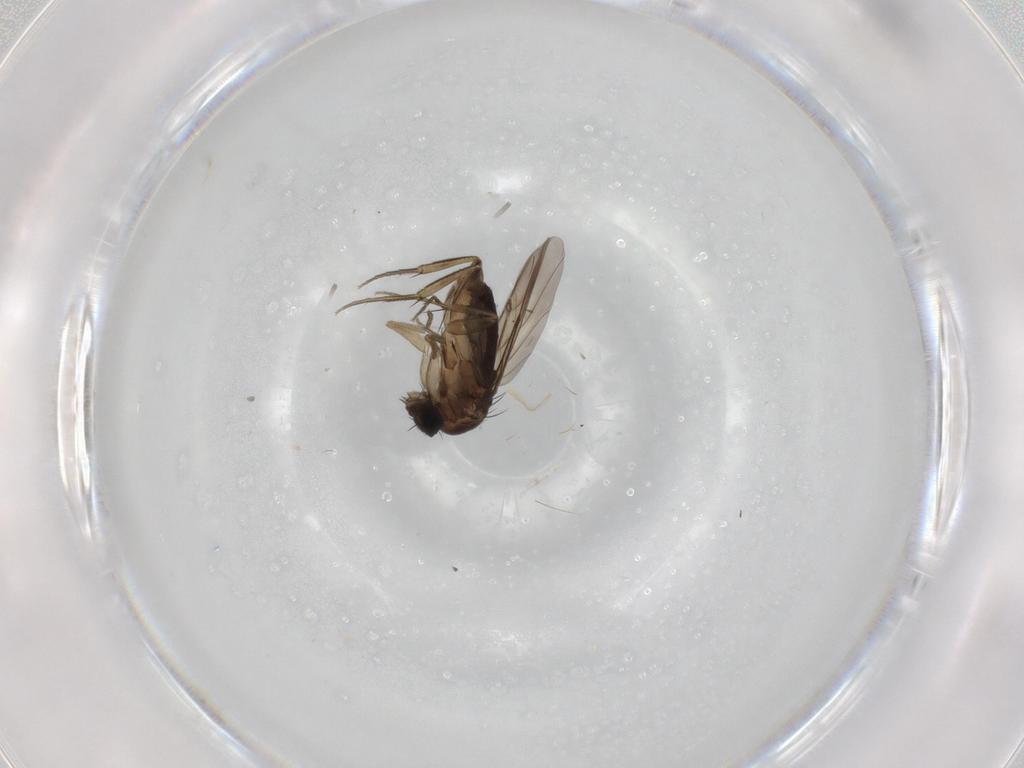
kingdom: Animalia
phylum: Arthropoda
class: Insecta
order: Diptera
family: Phoridae
